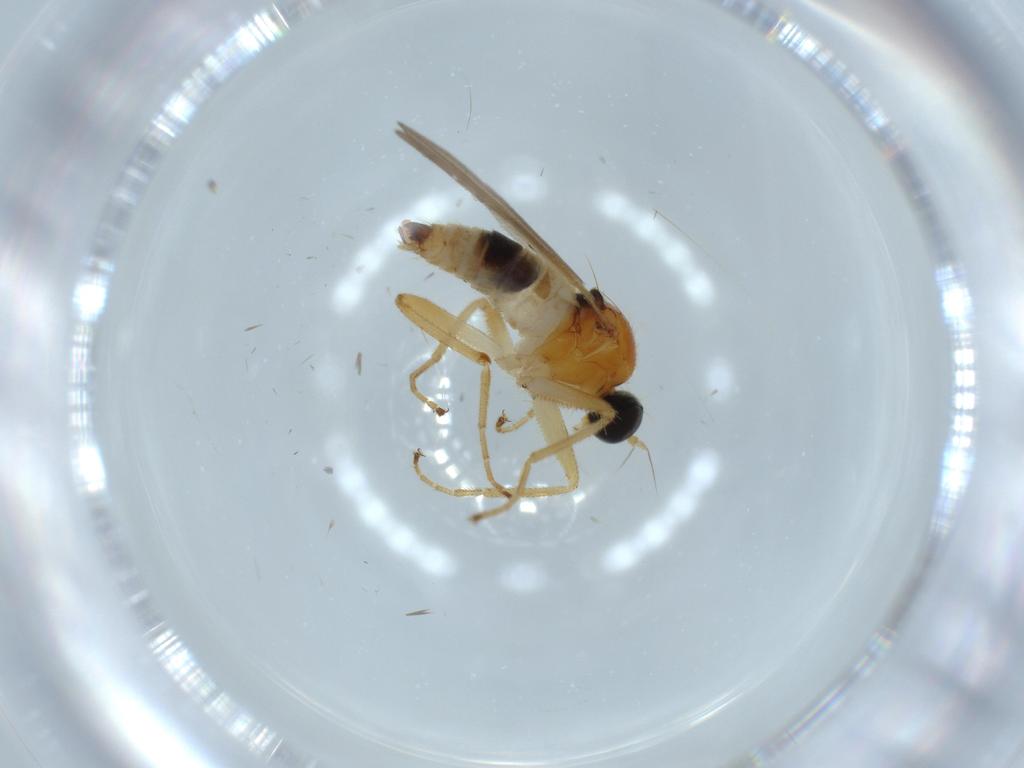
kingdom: Animalia
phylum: Arthropoda
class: Insecta
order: Diptera
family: Hybotidae
